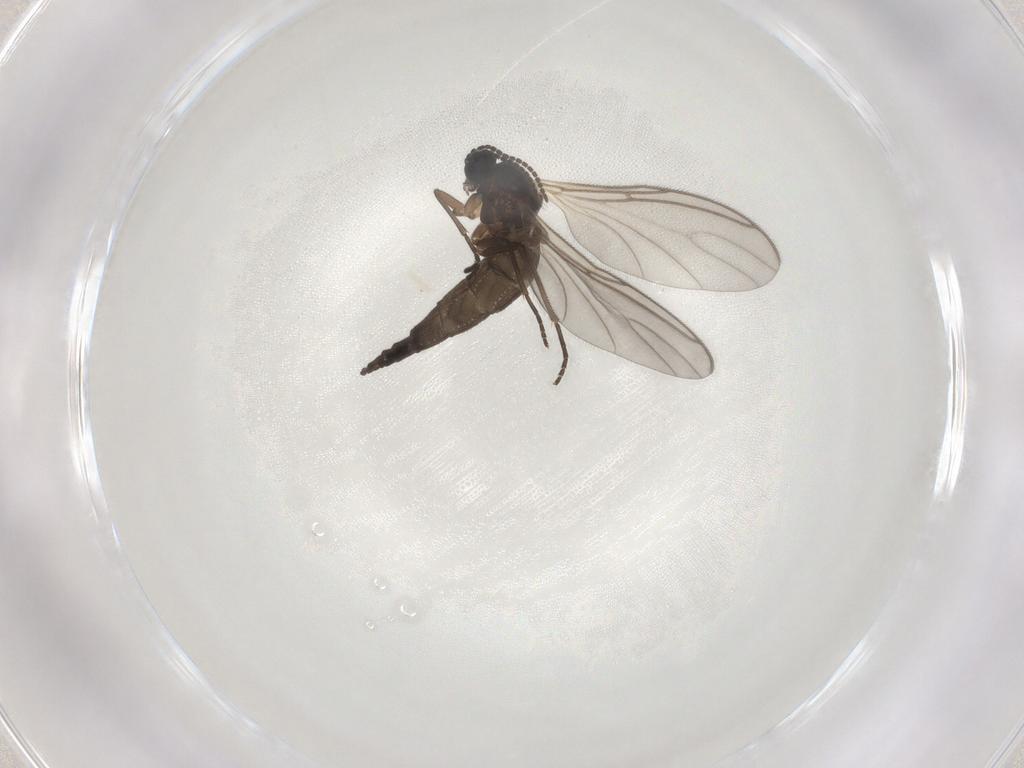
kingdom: Animalia
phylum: Arthropoda
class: Insecta
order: Diptera
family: Sciaridae
